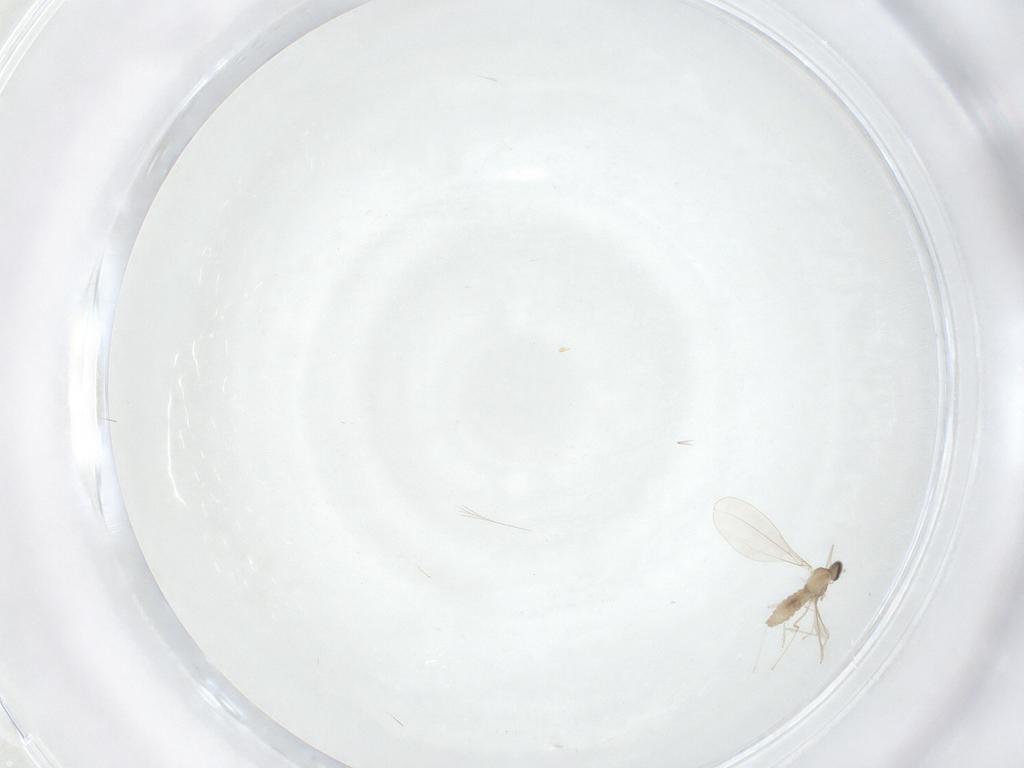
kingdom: Animalia
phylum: Arthropoda
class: Insecta
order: Diptera
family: Cecidomyiidae
